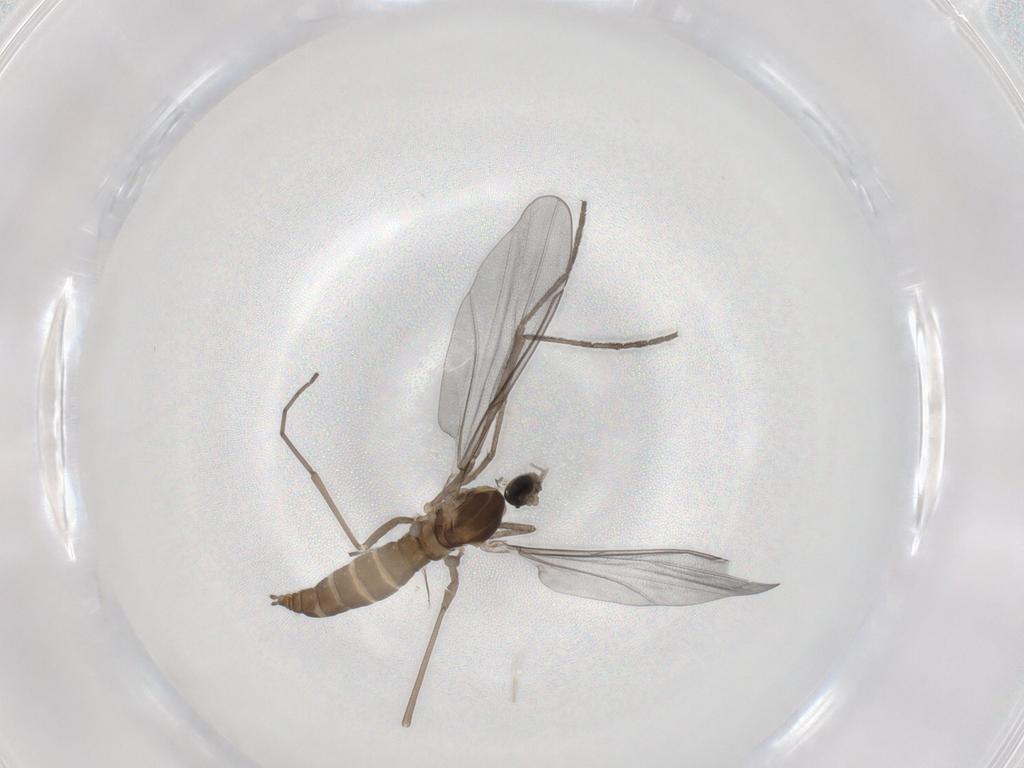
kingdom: Animalia
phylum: Arthropoda
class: Insecta
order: Diptera
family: Cecidomyiidae
